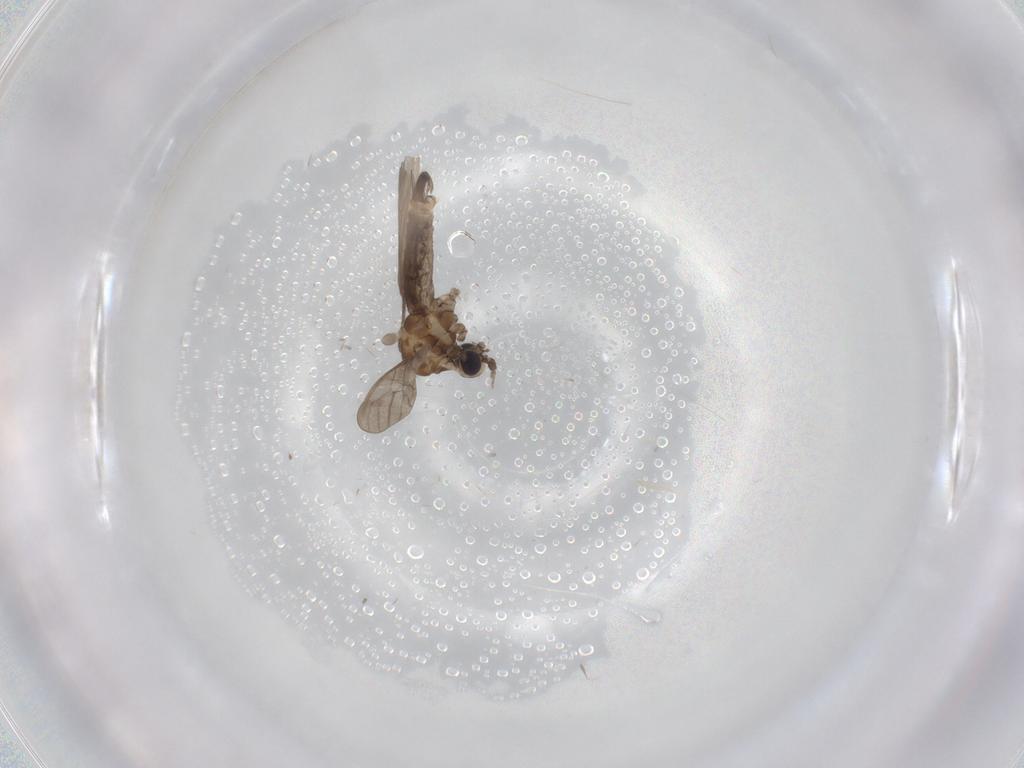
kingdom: Animalia
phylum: Arthropoda
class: Insecta
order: Diptera
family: Limoniidae
